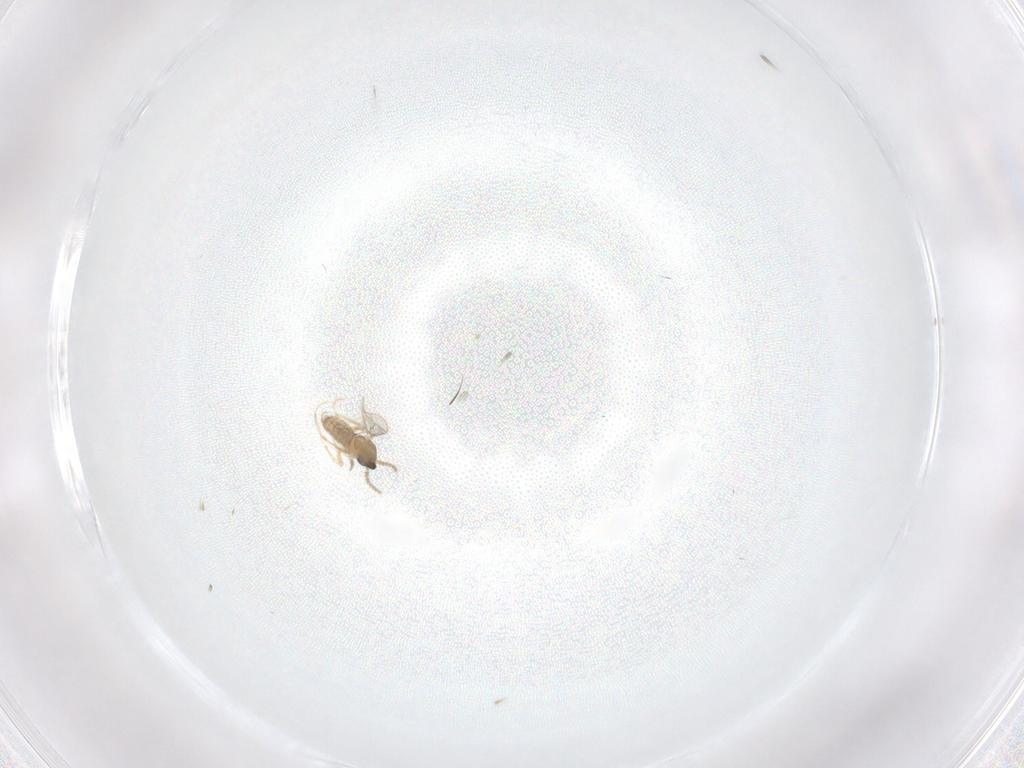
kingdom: Animalia
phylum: Arthropoda
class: Insecta
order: Diptera
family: Cecidomyiidae
